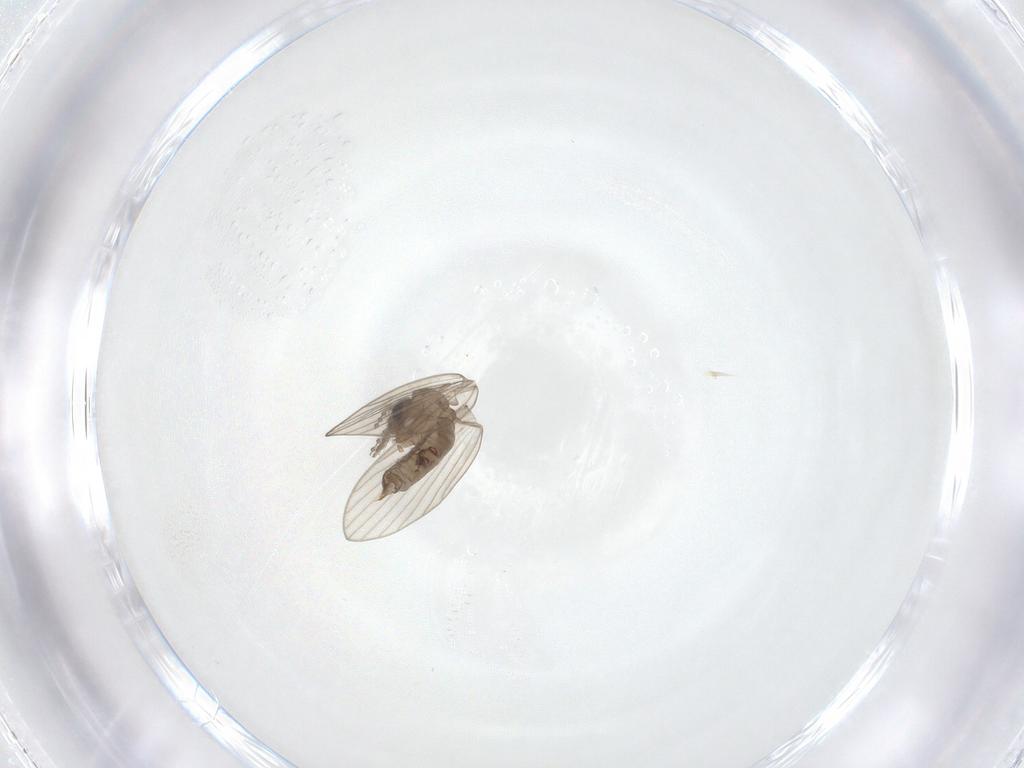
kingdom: Animalia
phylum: Arthropoda
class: Insecta
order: Diptera
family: Psychodidae
